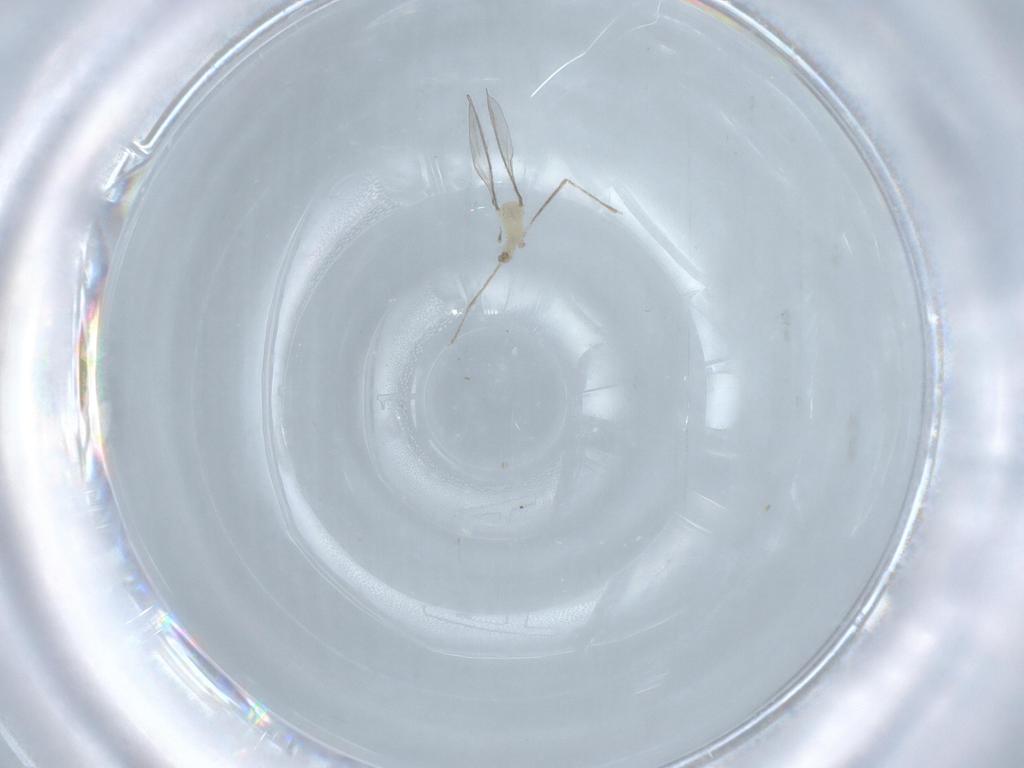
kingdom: Animalia
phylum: Arthropoda
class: Insecta
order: Diptera
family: Cecidomyiidae
